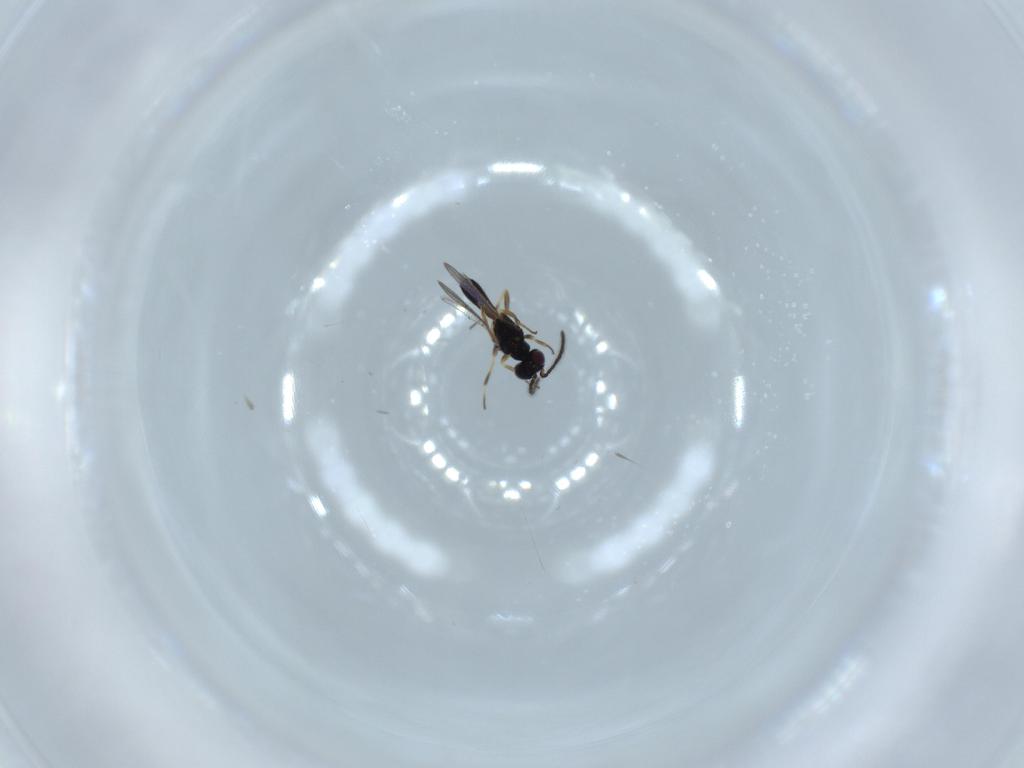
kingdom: Animalia
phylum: Arthropoda
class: Insecta
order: Hymenoptera
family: Eupelmidae
